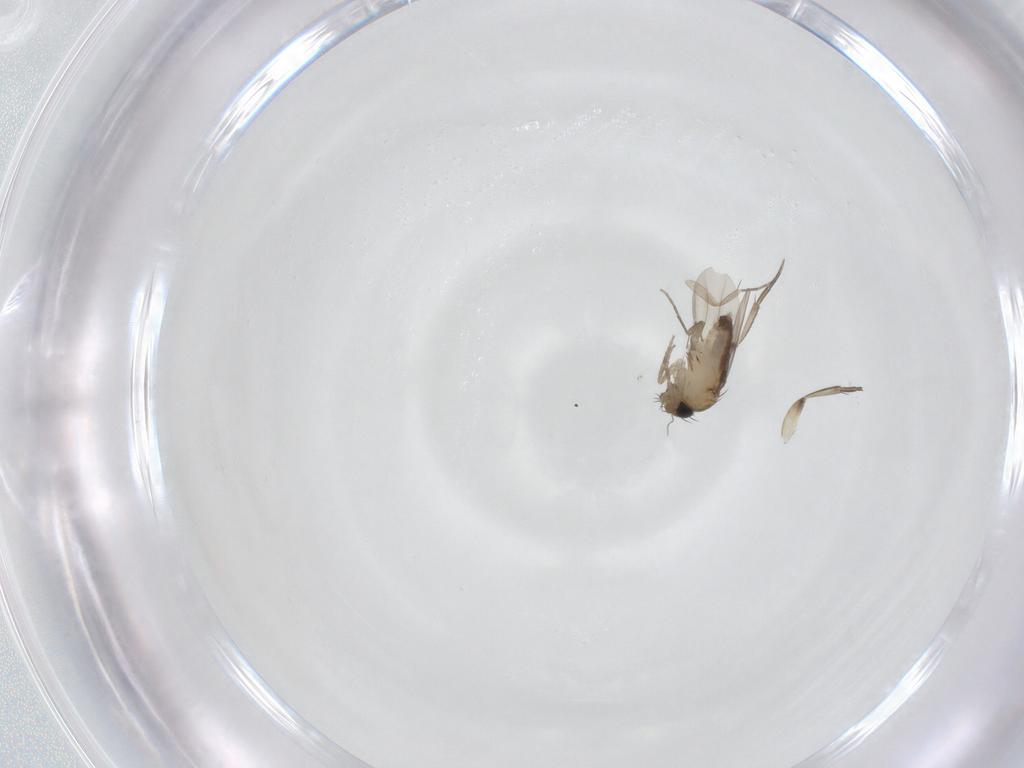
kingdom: Animalia
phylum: Arthropoda
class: Insecta
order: Diptera
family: Phoridae
